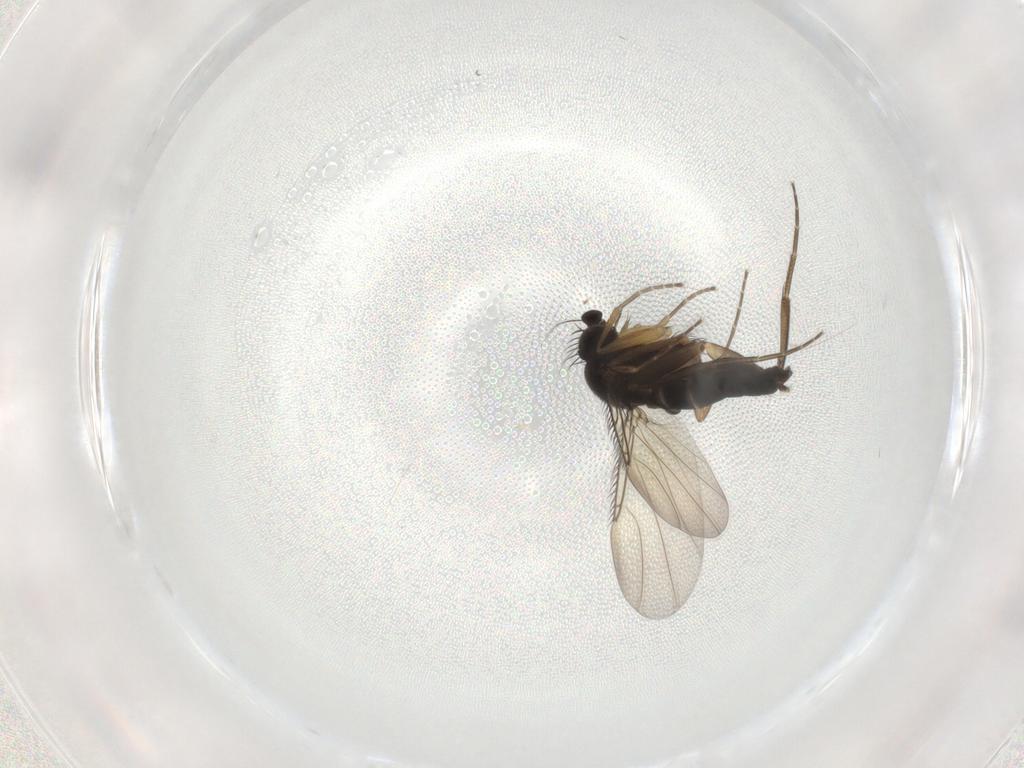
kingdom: Animalia
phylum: Arthropoda
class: Insecta
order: Diptera
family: Phoridae
